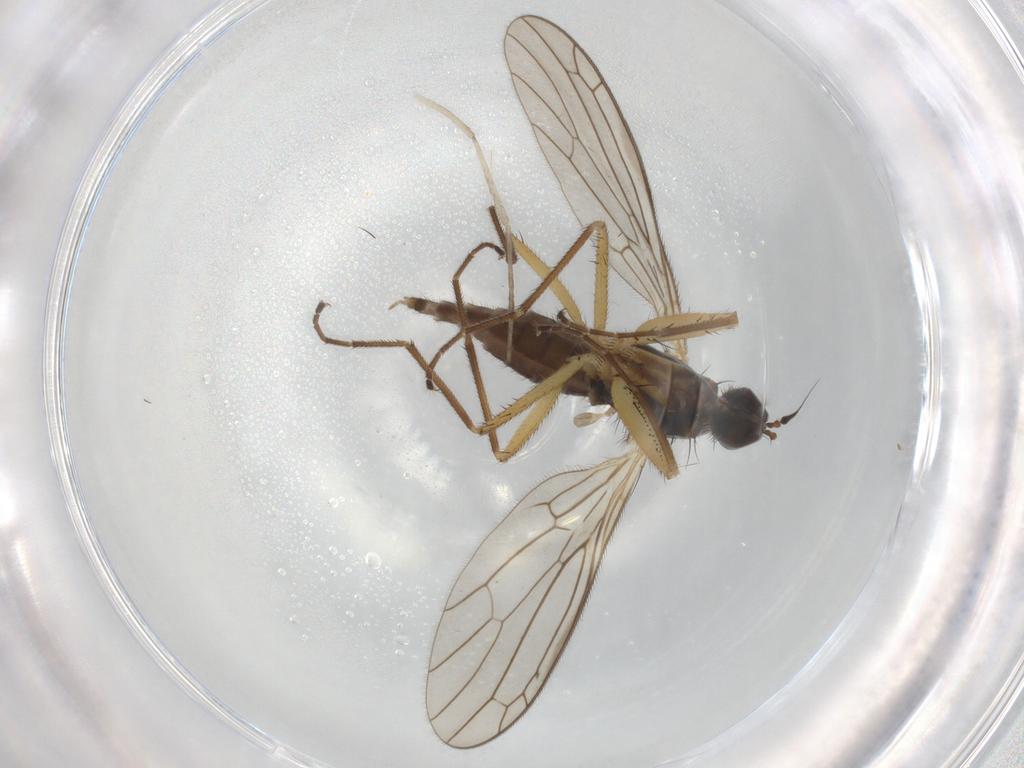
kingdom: Animalia
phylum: Arthropoda
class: Insecta
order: Diptera
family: Empididae
